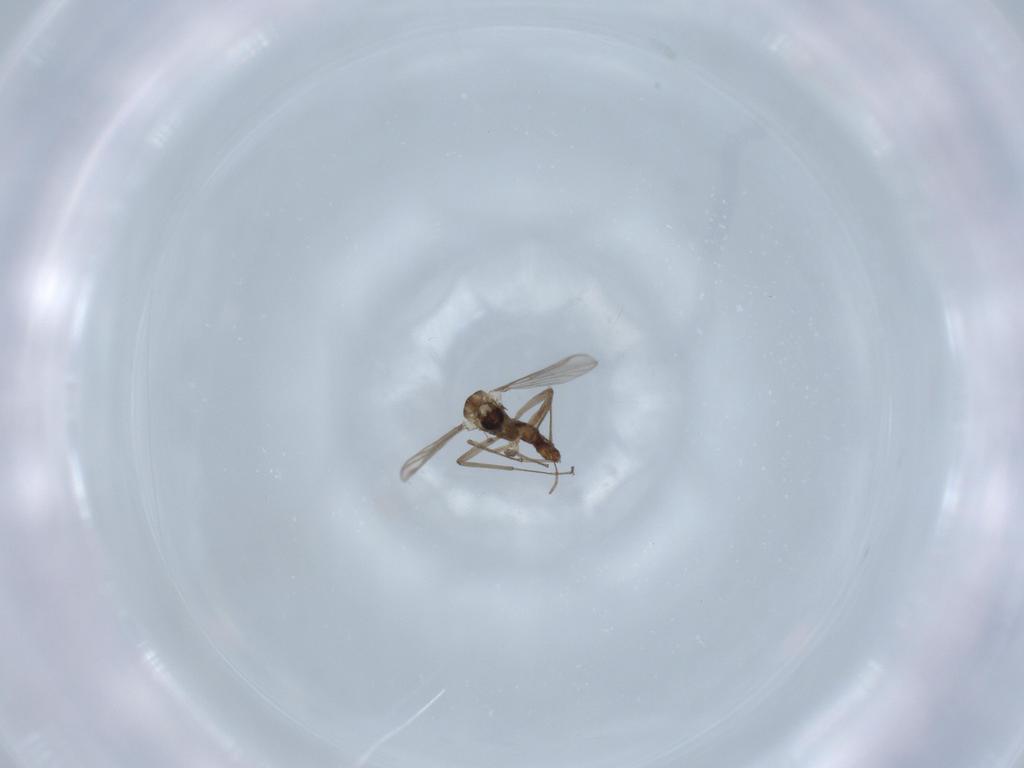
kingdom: Animalia
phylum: Arthropoda
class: Insecta
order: Diptera
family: Chironomidae
